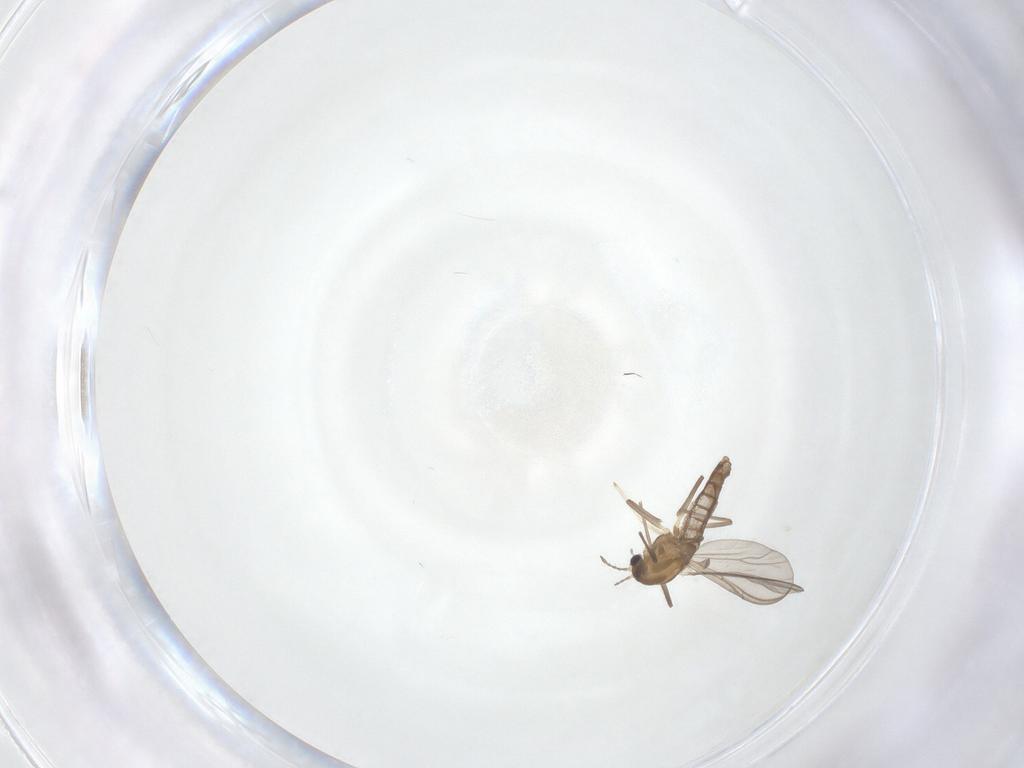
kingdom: Animalia
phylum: Arthropoda
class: Insecta
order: Diptera
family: Chironomidae
